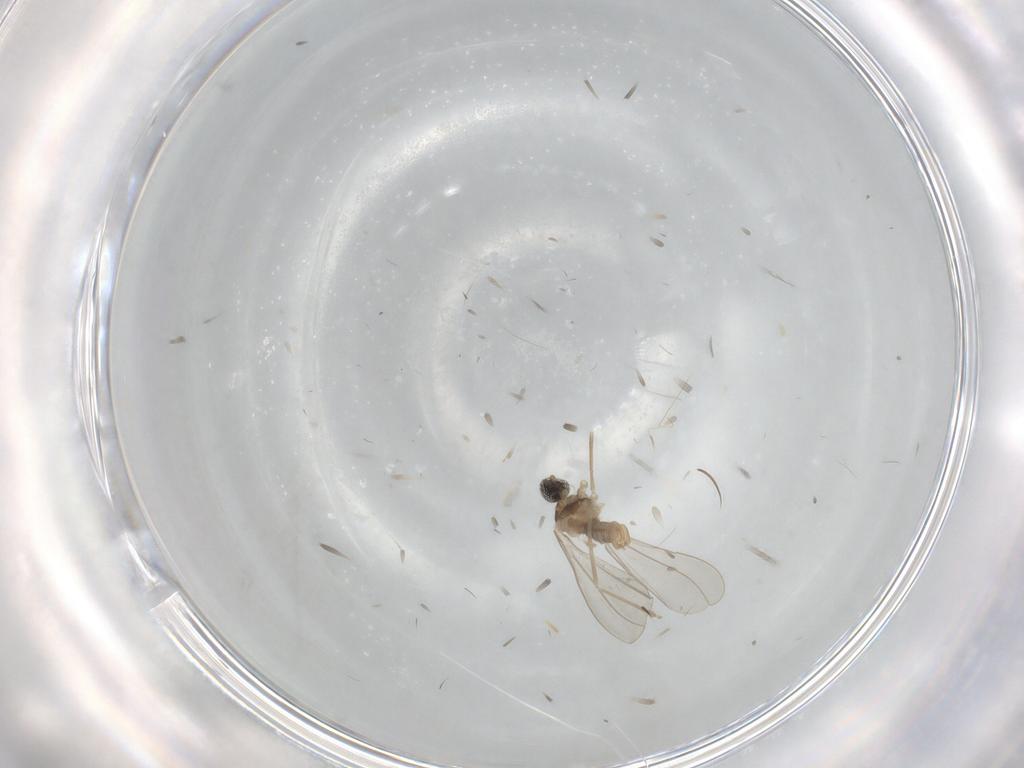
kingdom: Animalia
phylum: Arthropoda
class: Insecta
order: Diptera
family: Cecidomyiidae
